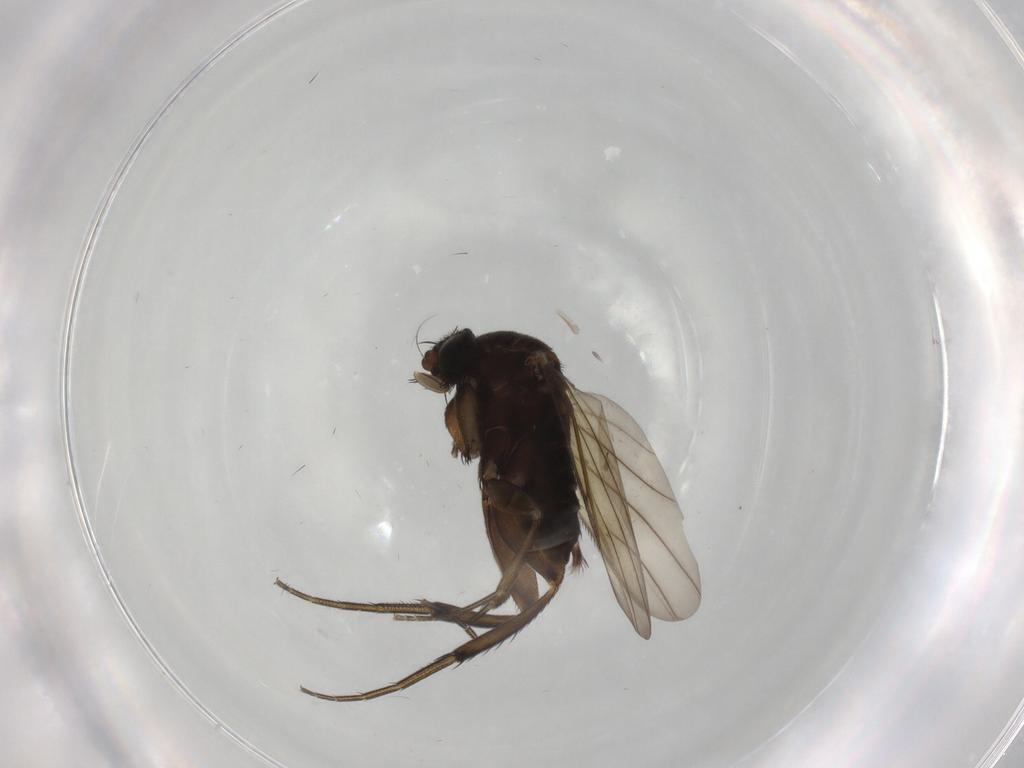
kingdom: Animalia
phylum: Arthropoda
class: Insecta
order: Diptera
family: Phoridae
